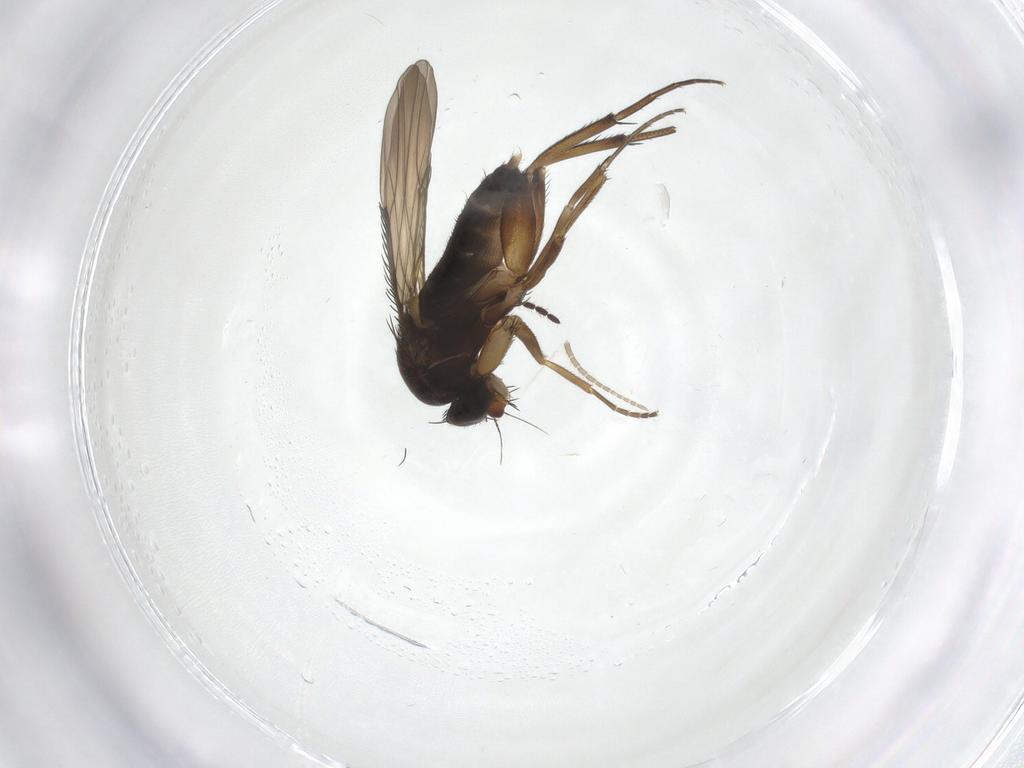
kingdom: Animalia
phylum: Arthropoda
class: Insecta
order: Diptera
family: Phoridae
